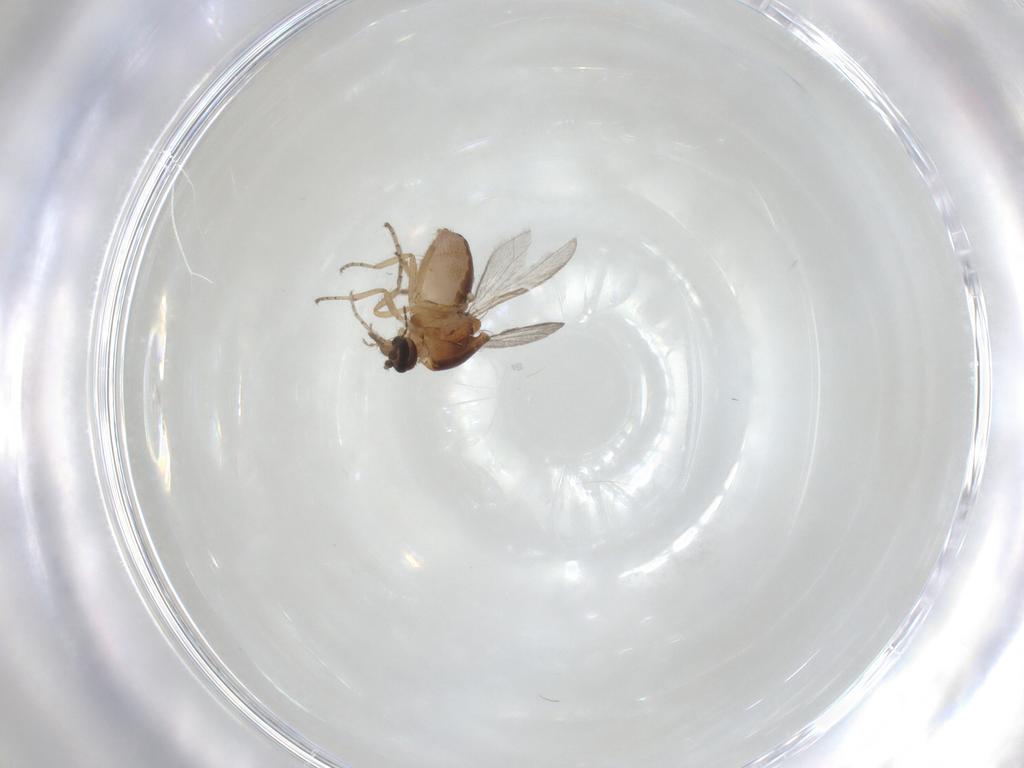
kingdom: Animalia
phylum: Arthropoda
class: Insecta
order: Diptera
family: Ceratopogonidae
